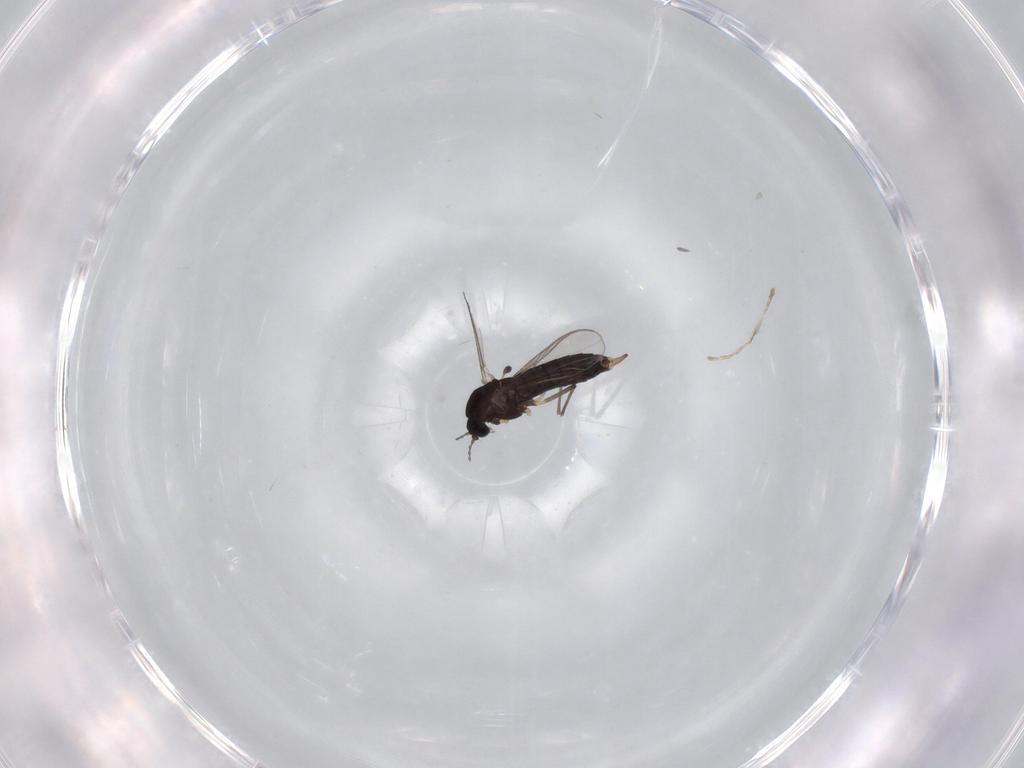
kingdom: Animalia
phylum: Arthropoda
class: Insecta
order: Diptera
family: Chironomidae
